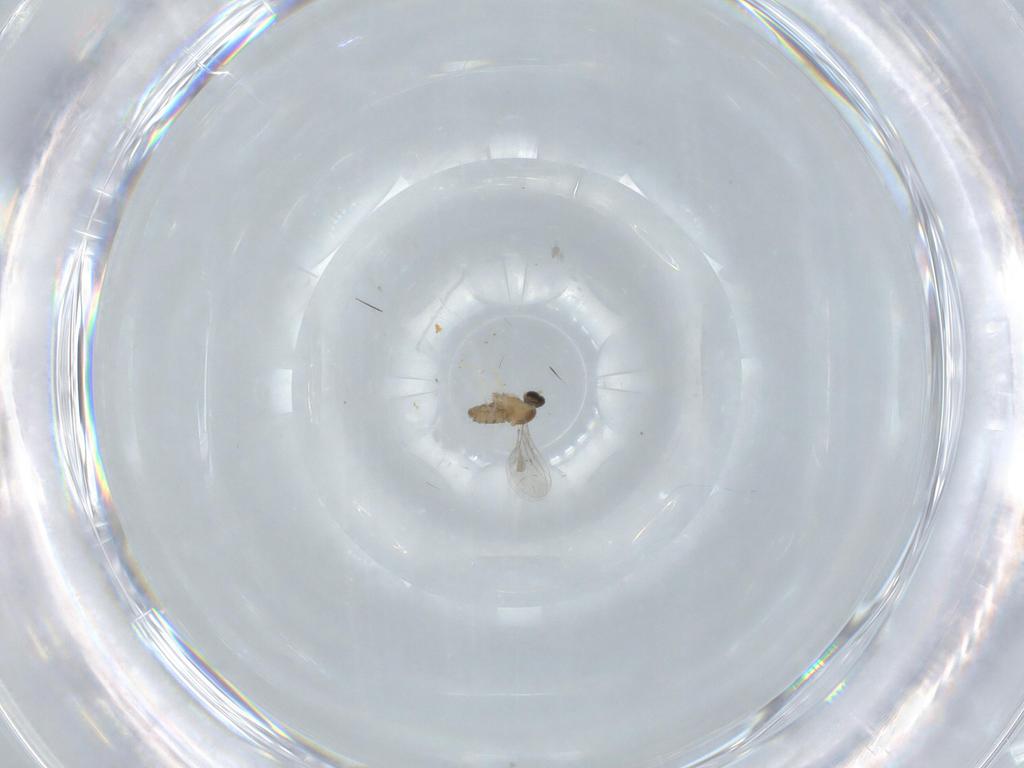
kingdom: Animalia
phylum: Arthropoda
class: Insecta
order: Diptera
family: Cecidomyiidae
